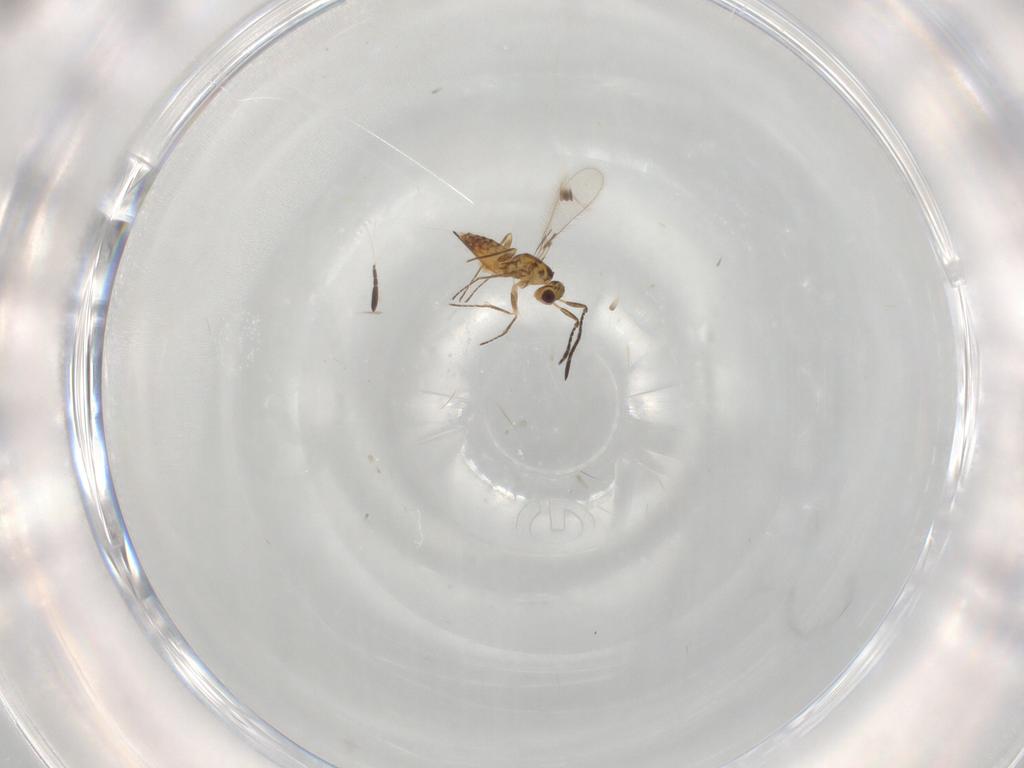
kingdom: Animalia
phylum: Arthropoda
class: Insecta
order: Hymenoptera
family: Mymaridae
